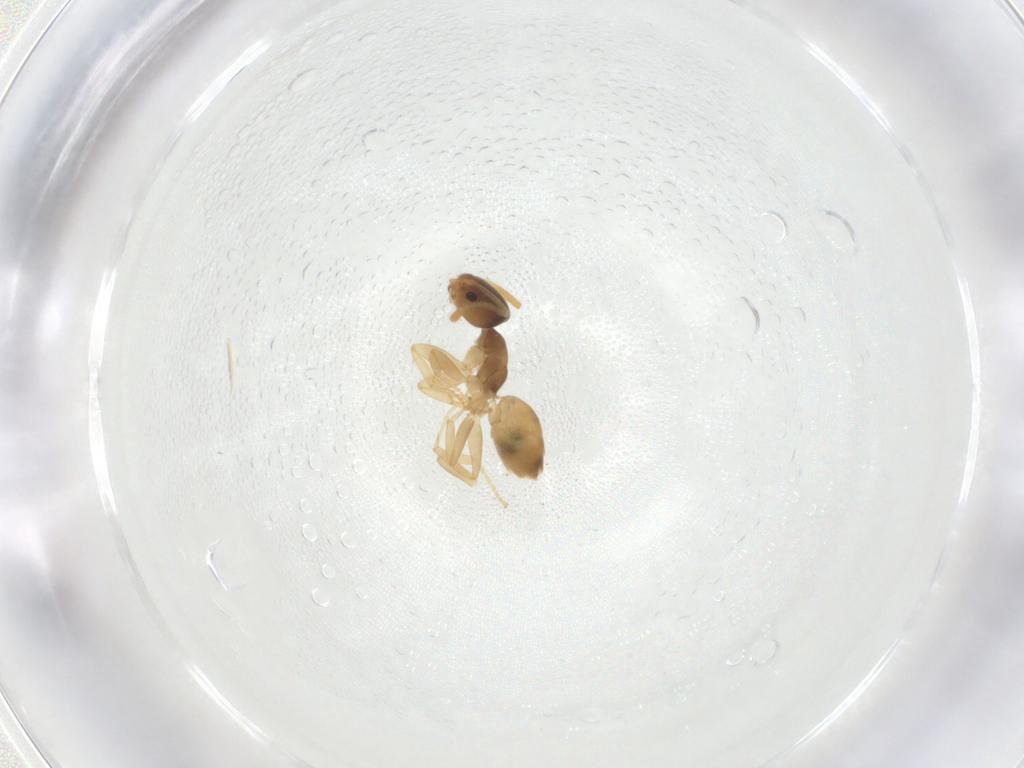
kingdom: Animalia
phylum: Arthropoda
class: Insecta
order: Hymenoptera
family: Formicidae
